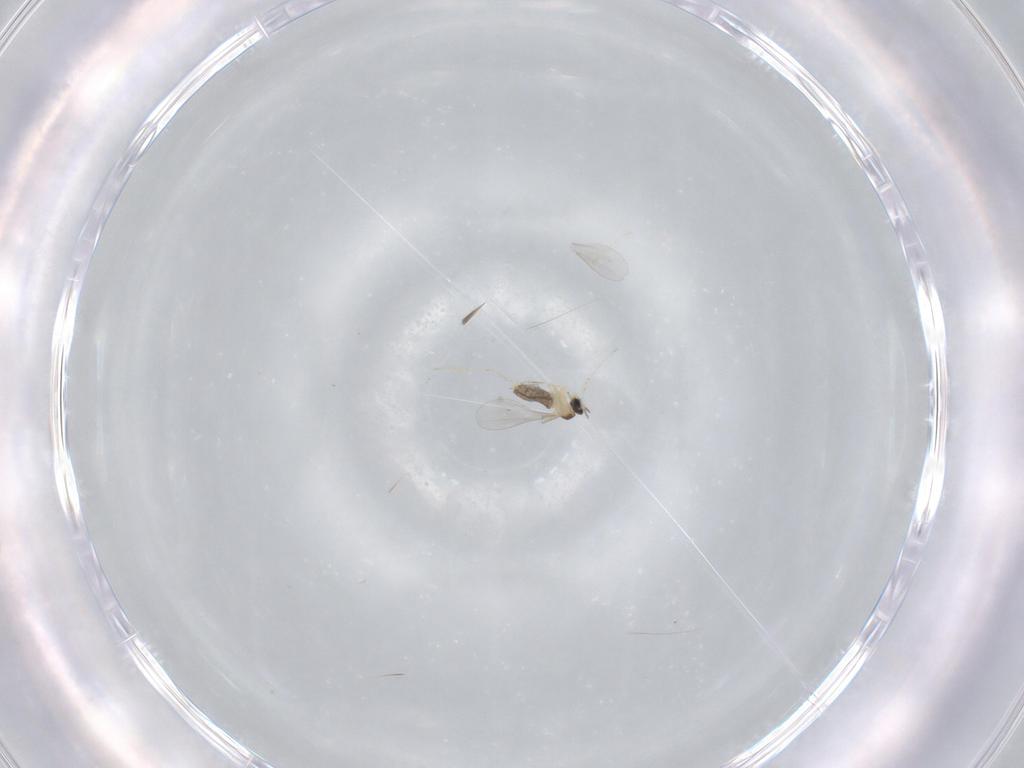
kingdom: Animalia
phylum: Arthropoda
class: Insecta
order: Diptera
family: Cecidomyiidae
